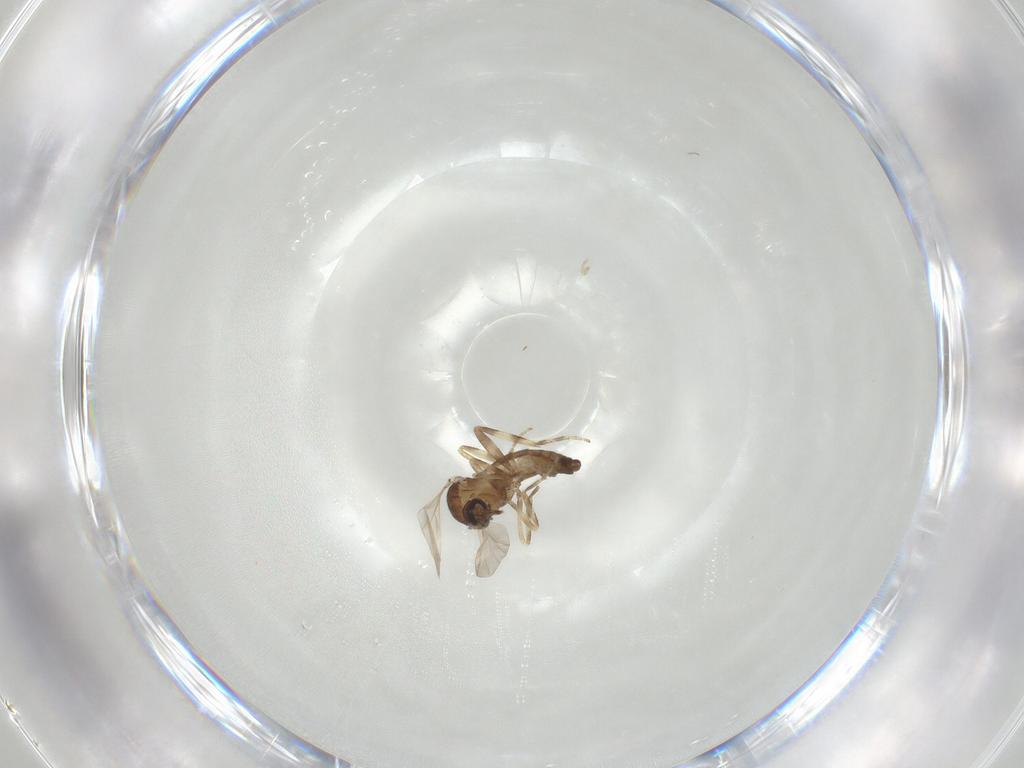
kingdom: Animalia
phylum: Arthropoda
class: Insecta
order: Diptera
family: Ceratopogonidae
